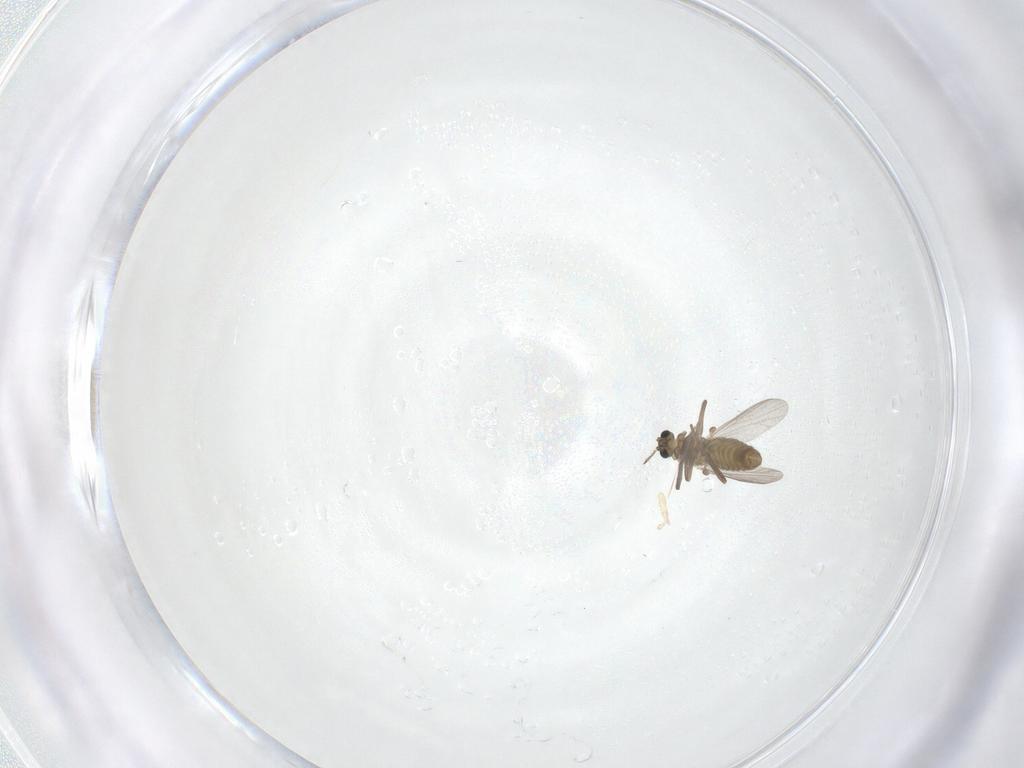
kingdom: Animalia
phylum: Arthropoda
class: Insecta
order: Diptera
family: Chironomidae
